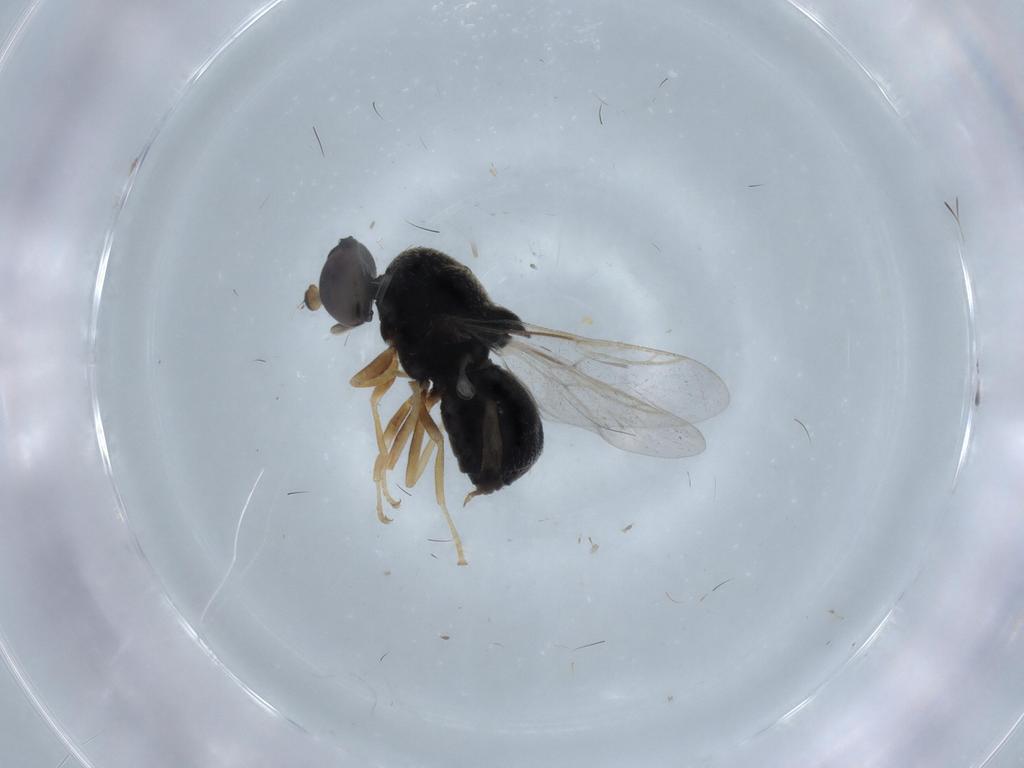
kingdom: Animalia
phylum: Arthropoda
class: Insecta
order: Diptera
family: Stratiomyidae
